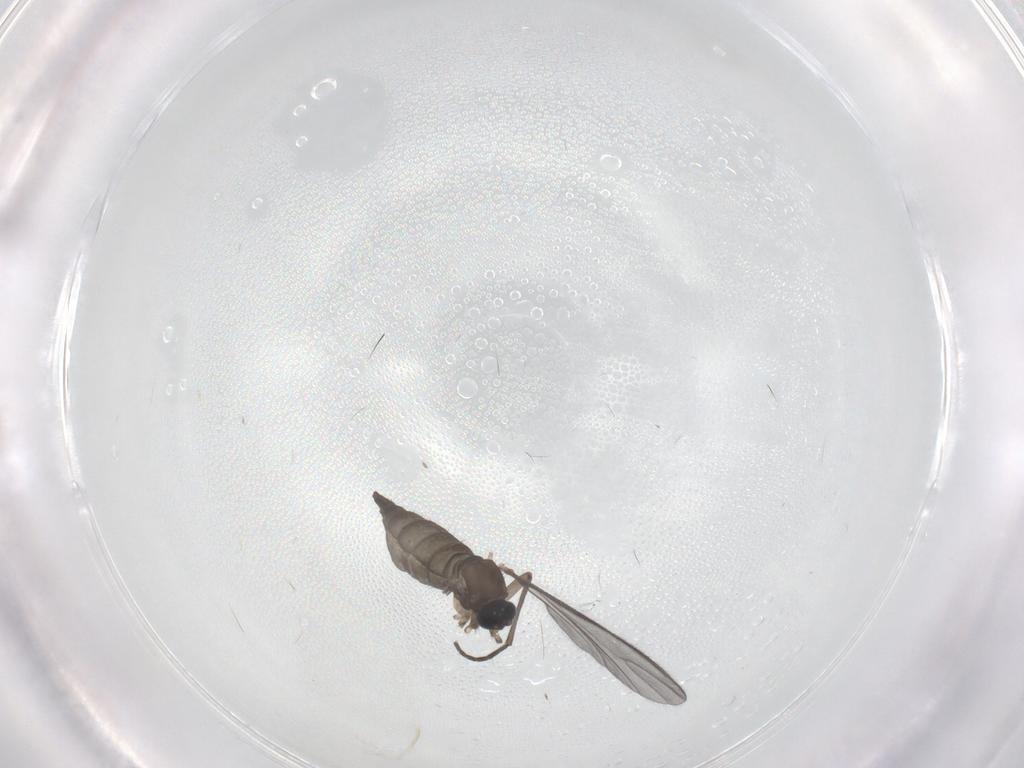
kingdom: Animalia
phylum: Arthropoda
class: Insecta
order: Diptera
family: Sciaridae
